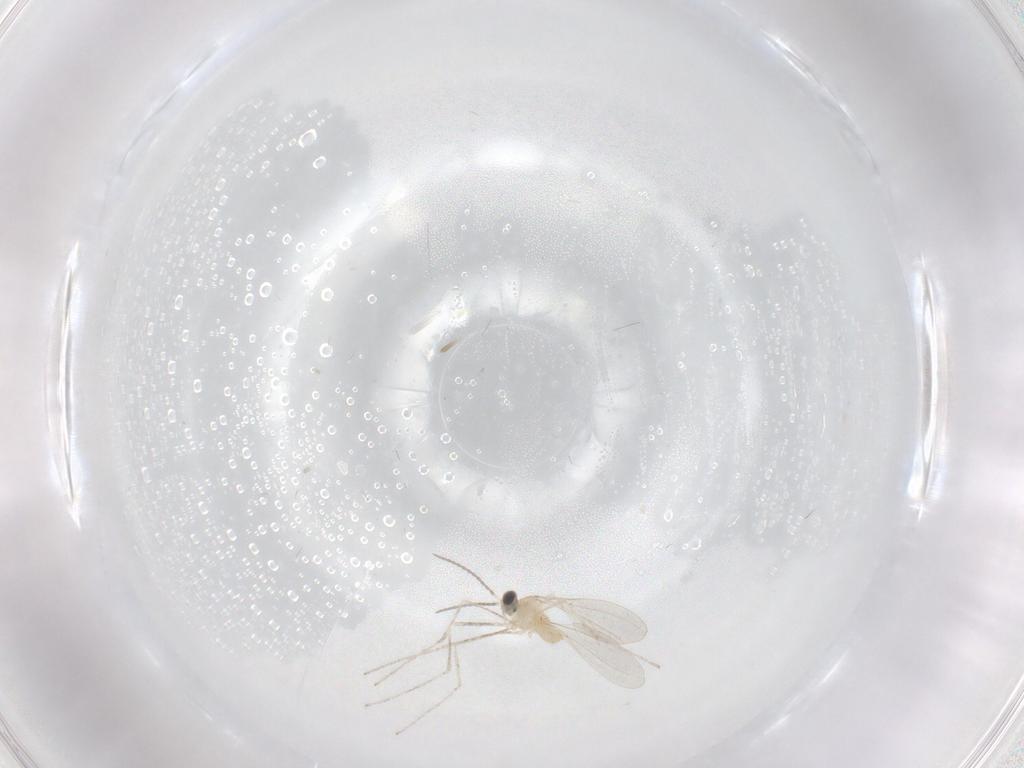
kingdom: Animalia
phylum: Arthropoda
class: Insecta
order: Diptera
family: Cecidomyiidae
